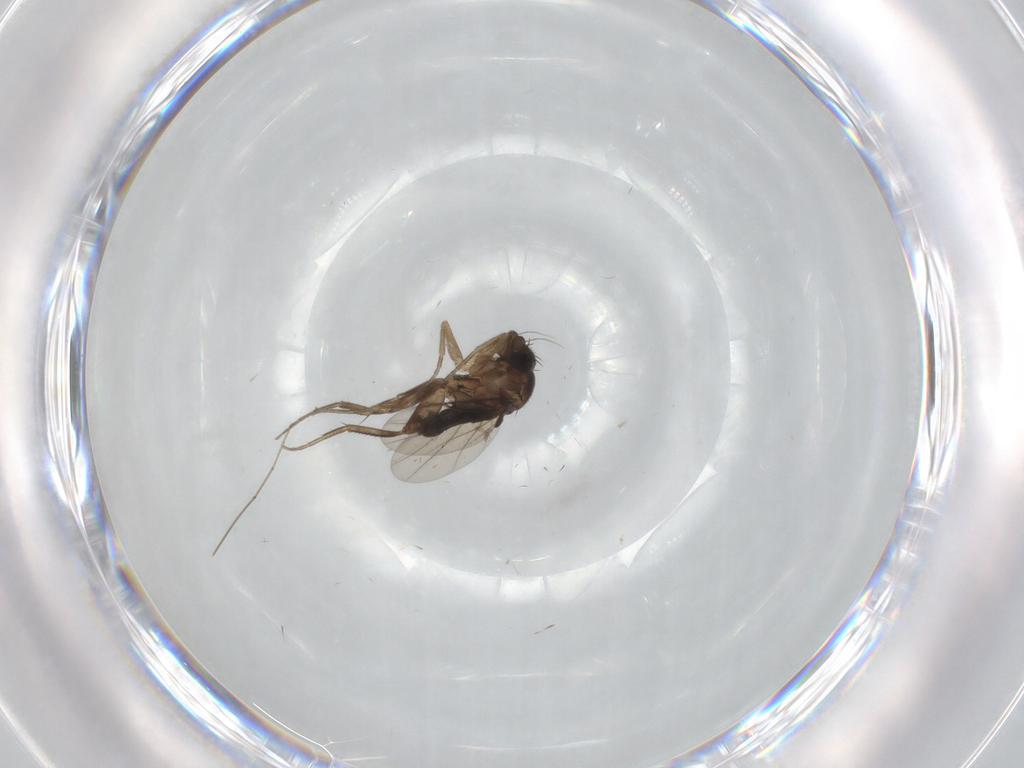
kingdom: Animalia
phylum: Arthropoda
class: Insecta
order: Diptera
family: Phoridae
